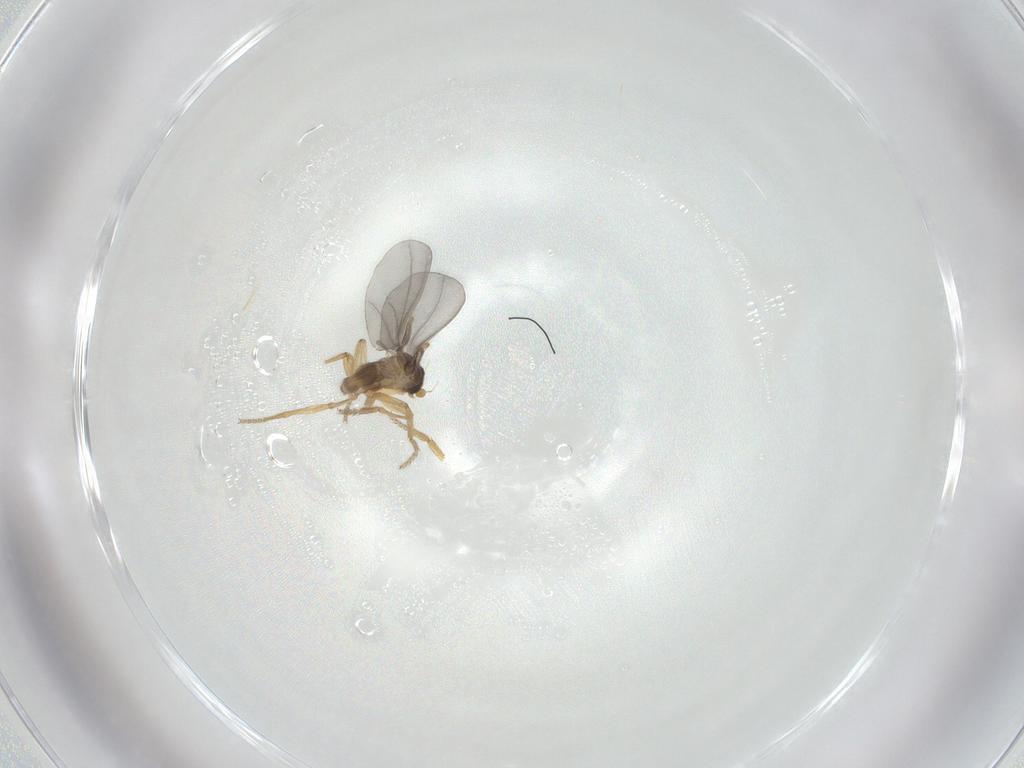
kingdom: Animalia
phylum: Arthropoda
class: Insecta
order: Diptera
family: Phoridae
